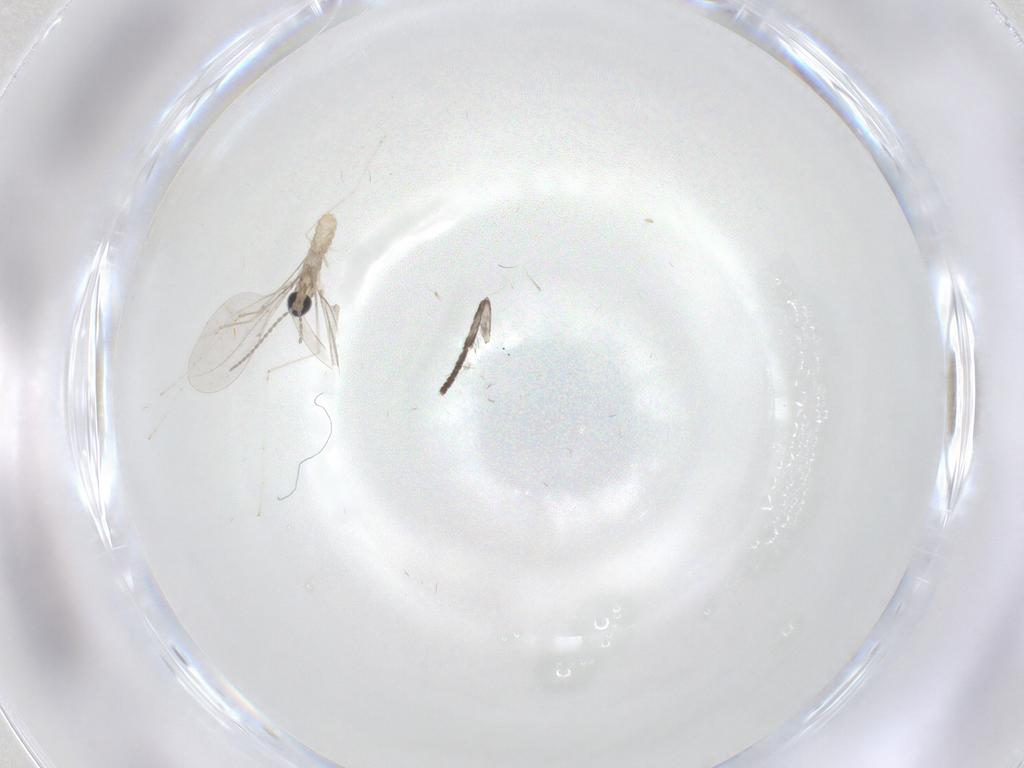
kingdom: Animalia
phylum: Arthropoda
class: Insecta
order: Diptera
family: Cecidomyiidae
